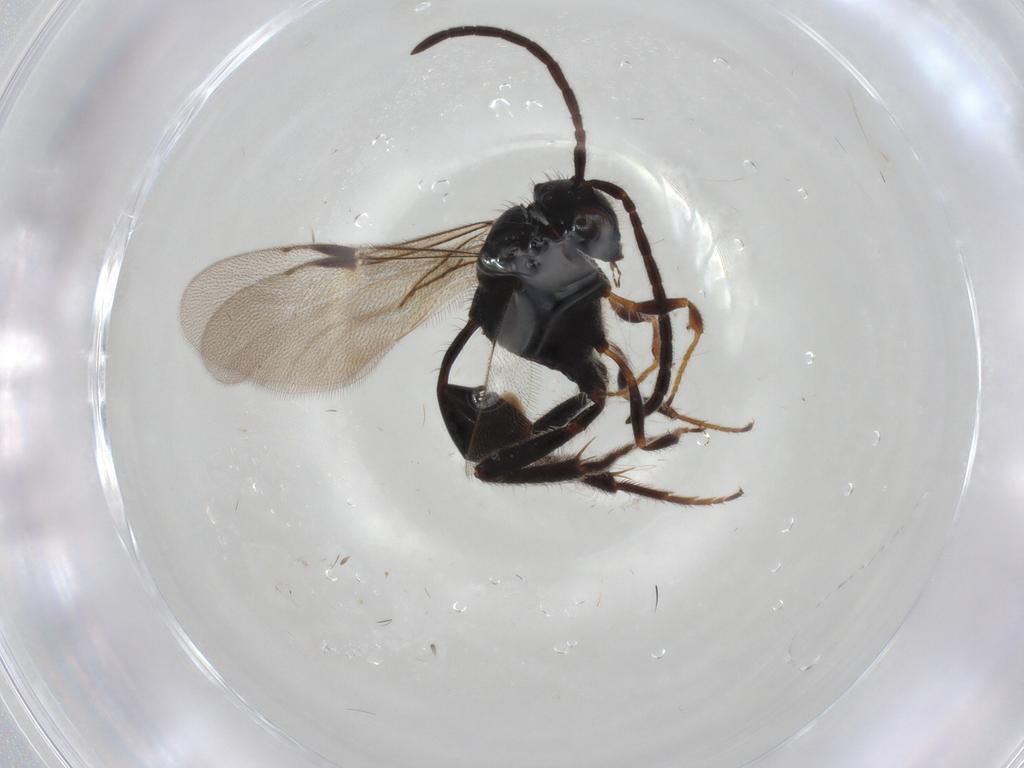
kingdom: Animalia
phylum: Arthropoda
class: Insecta
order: Hymenoptera
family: Evaniidae
